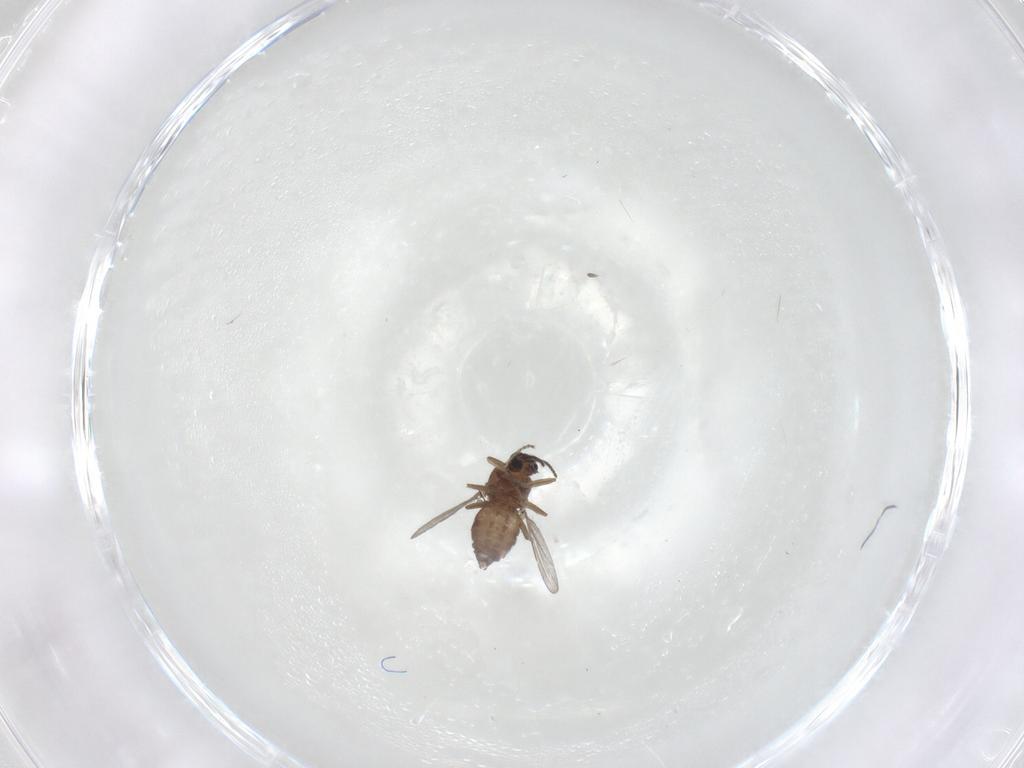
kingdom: Animalia
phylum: Arthropoda
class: Insecta
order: Diptera
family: Ceratopogonidae
